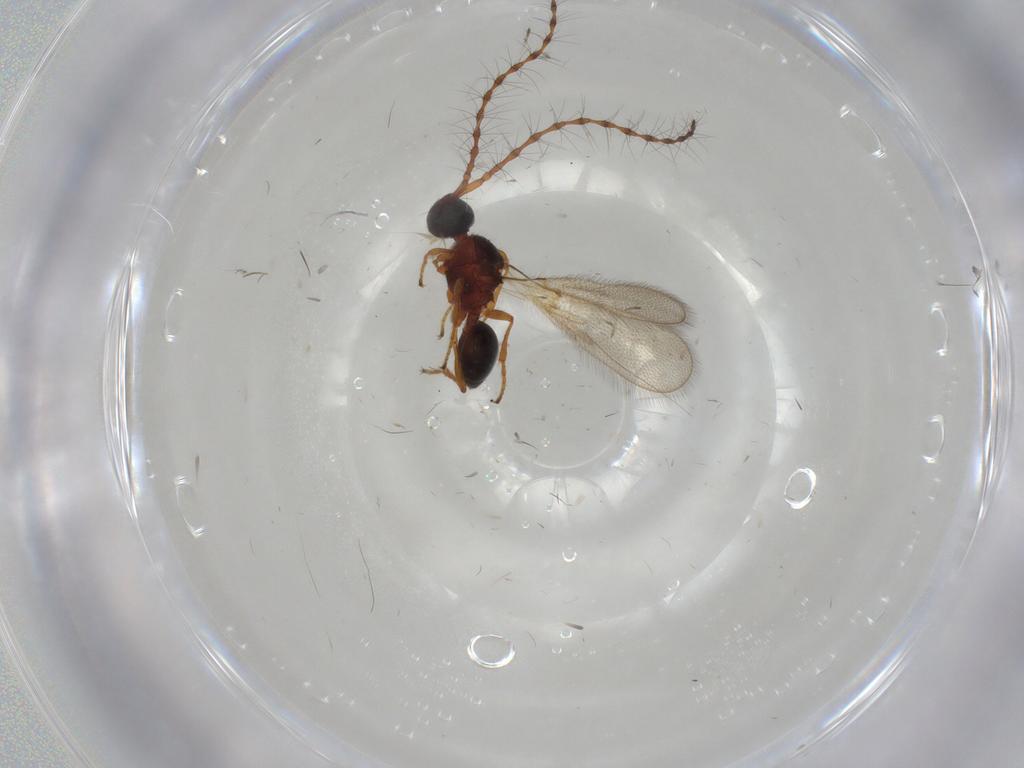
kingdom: Animalia
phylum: Arthropoda
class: Insecta
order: Hymenoptera
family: Diapriidae
